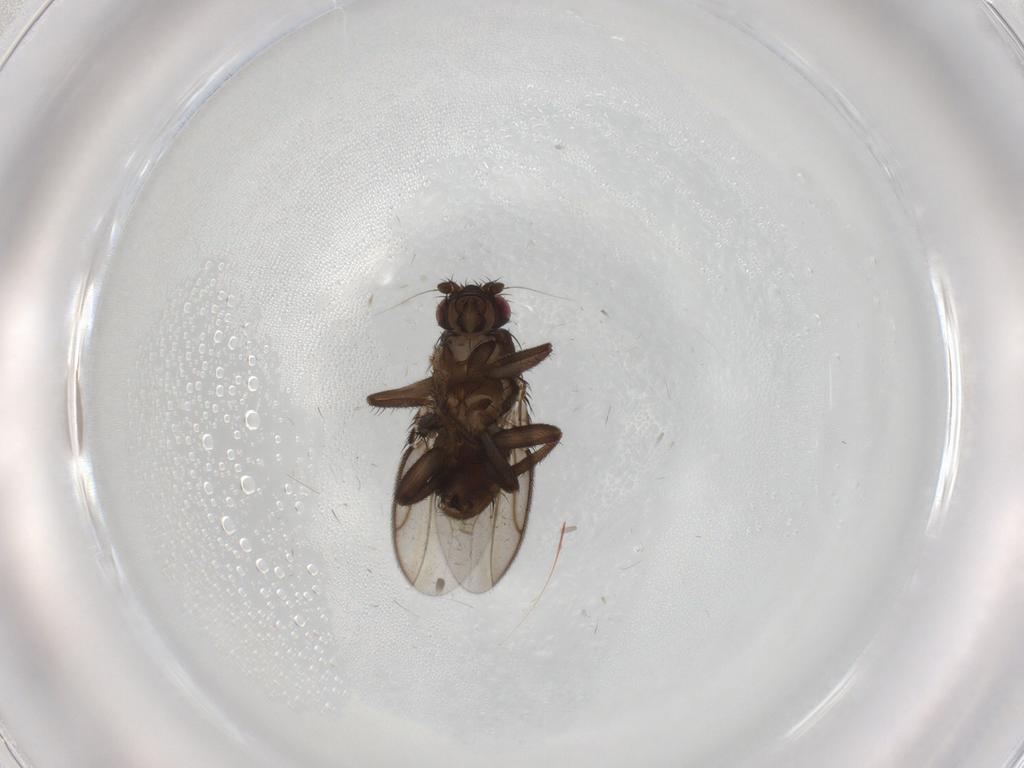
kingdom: Animalia
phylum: Arthropoda
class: Insecta
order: Diptera
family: Sphaeroceridae
